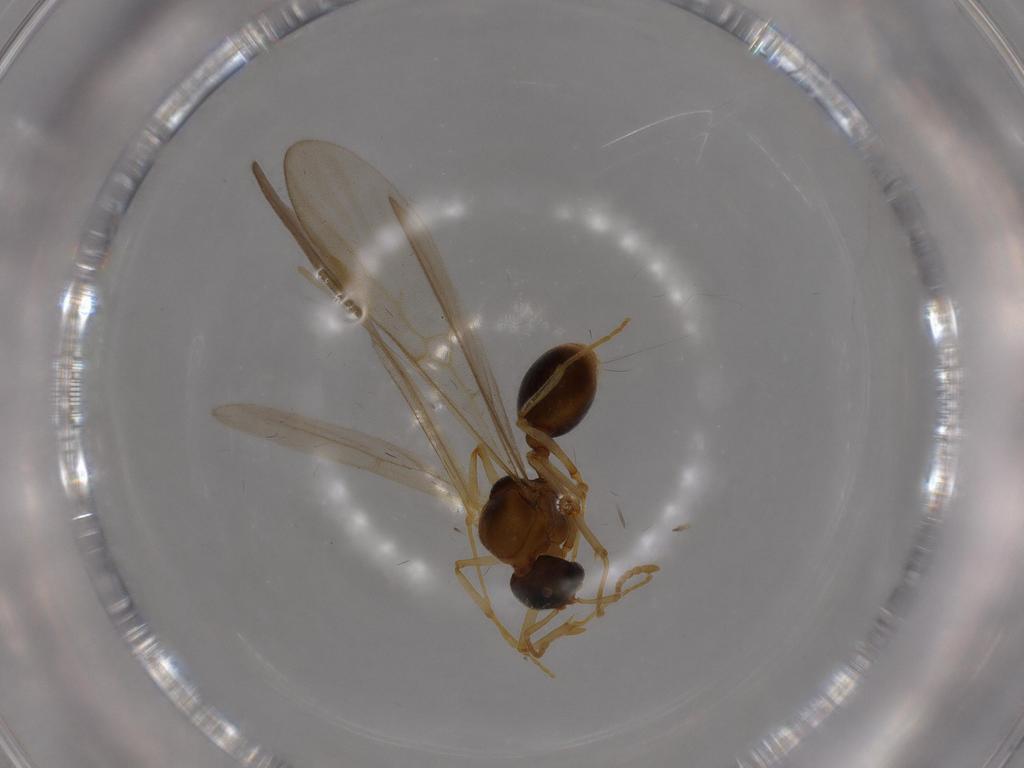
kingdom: Animalia
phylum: Arthropoda
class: Insecta
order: Hymenoptera
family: Formicidae
